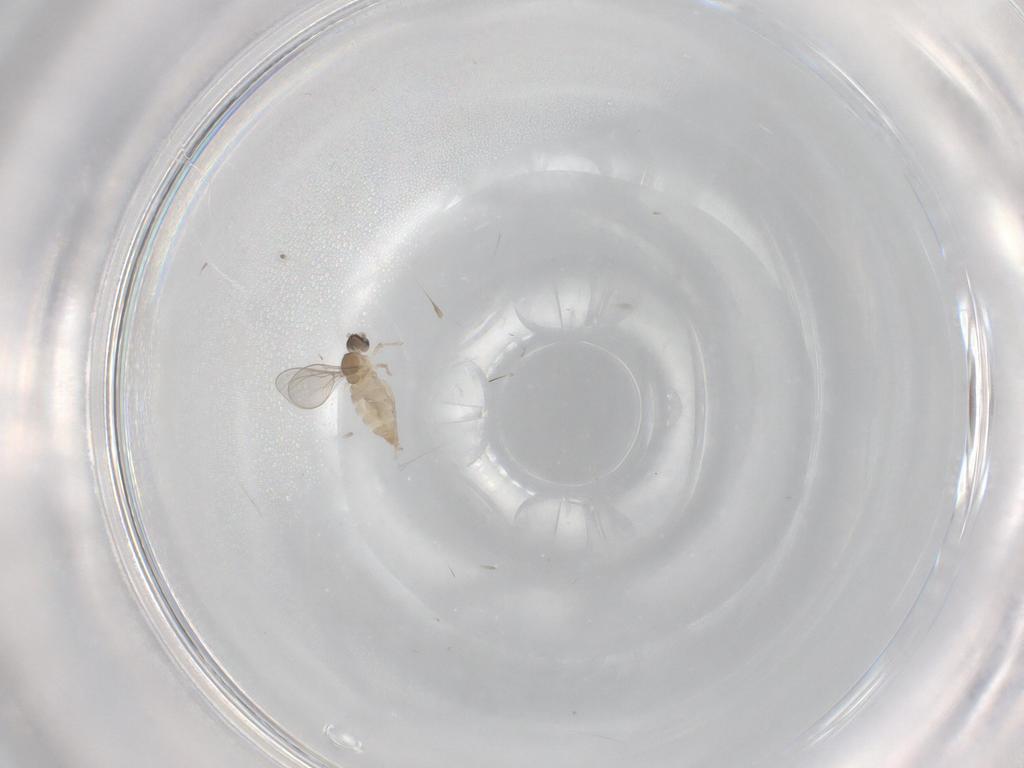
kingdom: Animalia
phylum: Arthropoda
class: Insecta
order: Diptera
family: Cecidomyiidae
